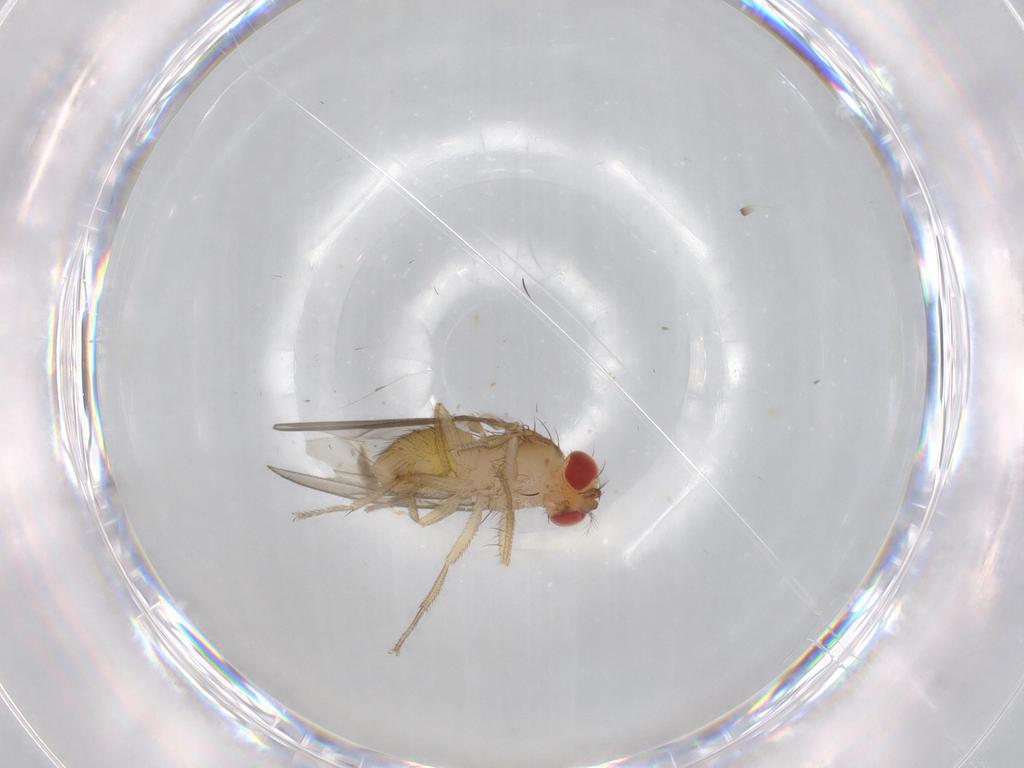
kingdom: Animalia
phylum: Arthropoda
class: Insecta
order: Diptera
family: Drosophilidae
